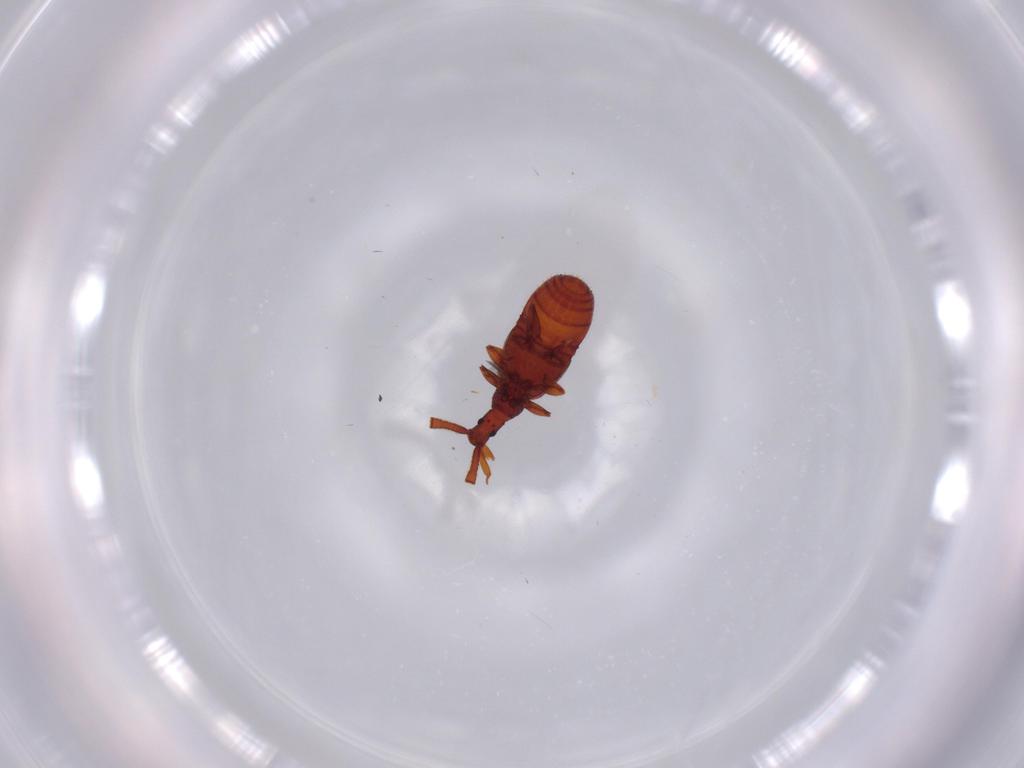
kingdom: Animalia
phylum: Arthropoda
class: Insecta
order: Coleoptera
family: Staphylinidae
